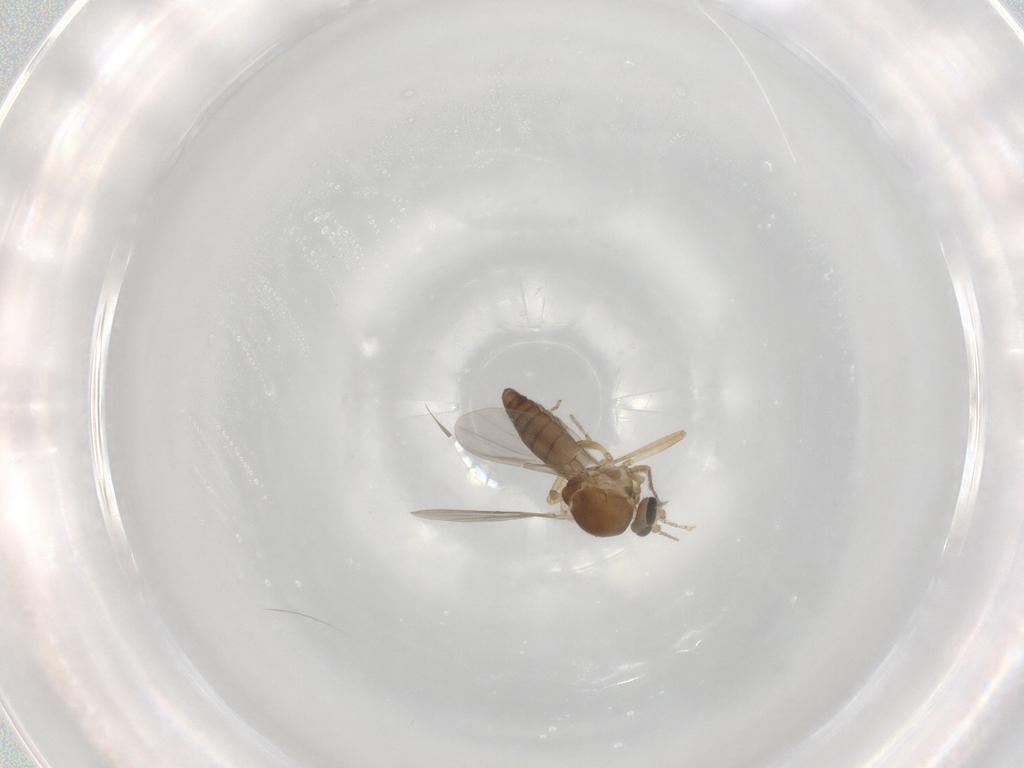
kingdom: Animalia
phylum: Arthropoda
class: Insecta
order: Diptera
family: Ceratopogonidae
